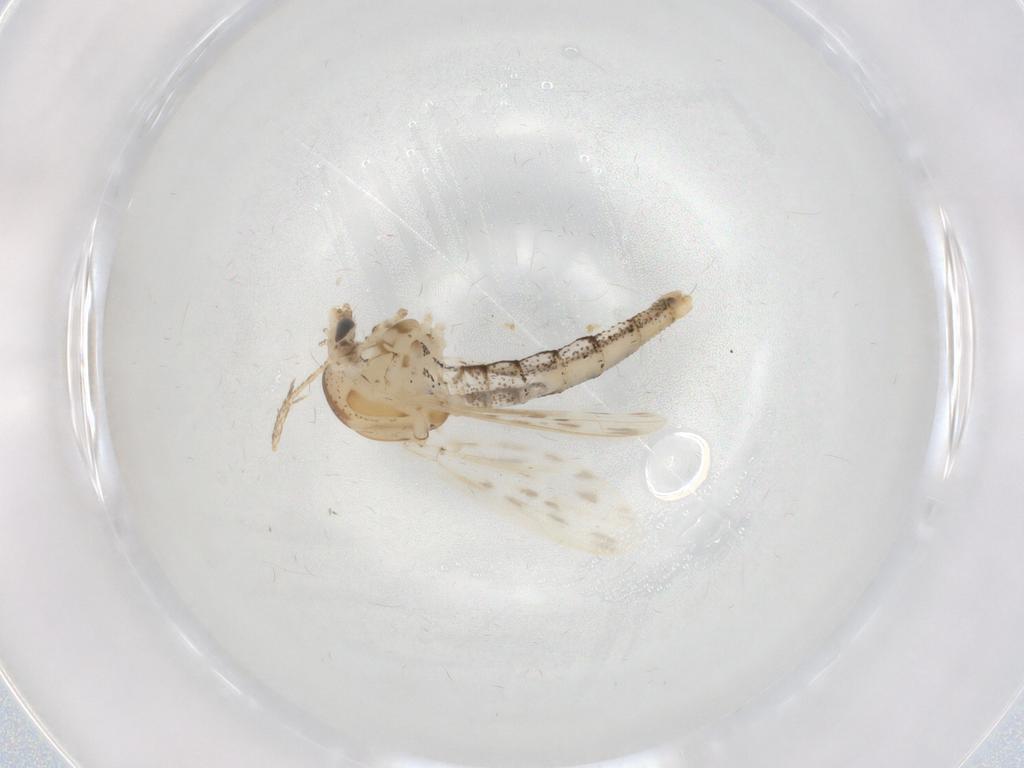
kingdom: Animalia
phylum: Arthropoda
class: Insecta
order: Diptera
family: Chaoboridae
